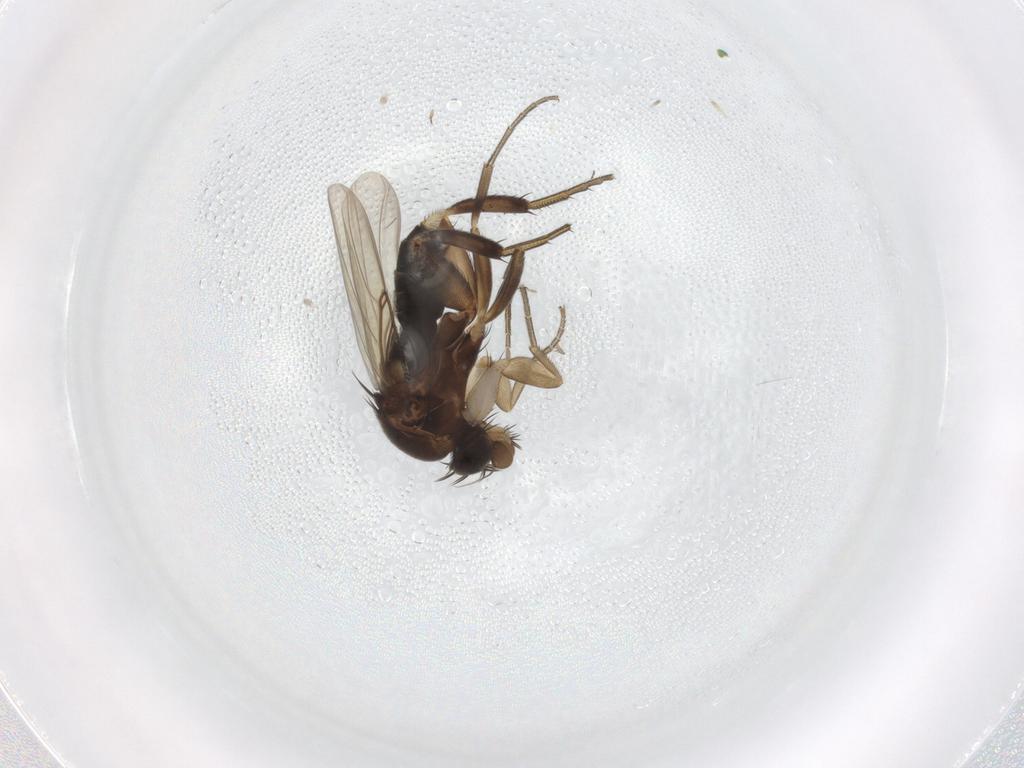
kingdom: Animalia
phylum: Arthropoda
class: Insecta
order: Diptera
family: Phoridae
